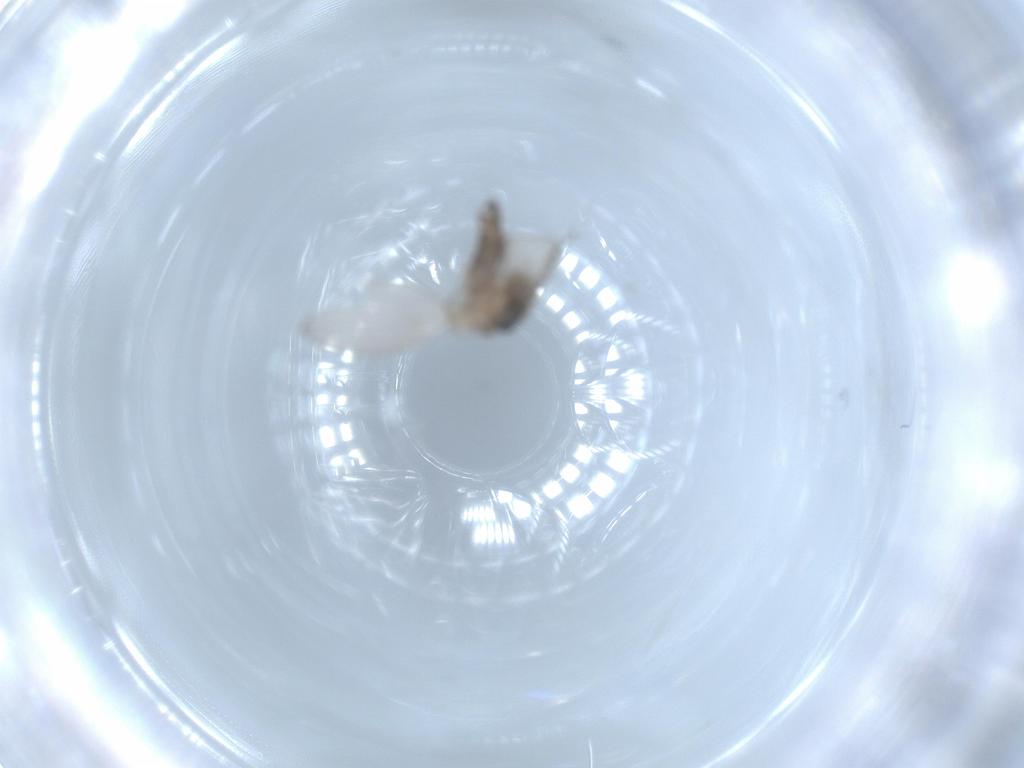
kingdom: Animalia
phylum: Arthropoda
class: Insecta
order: Diptera
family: Psychodidae
